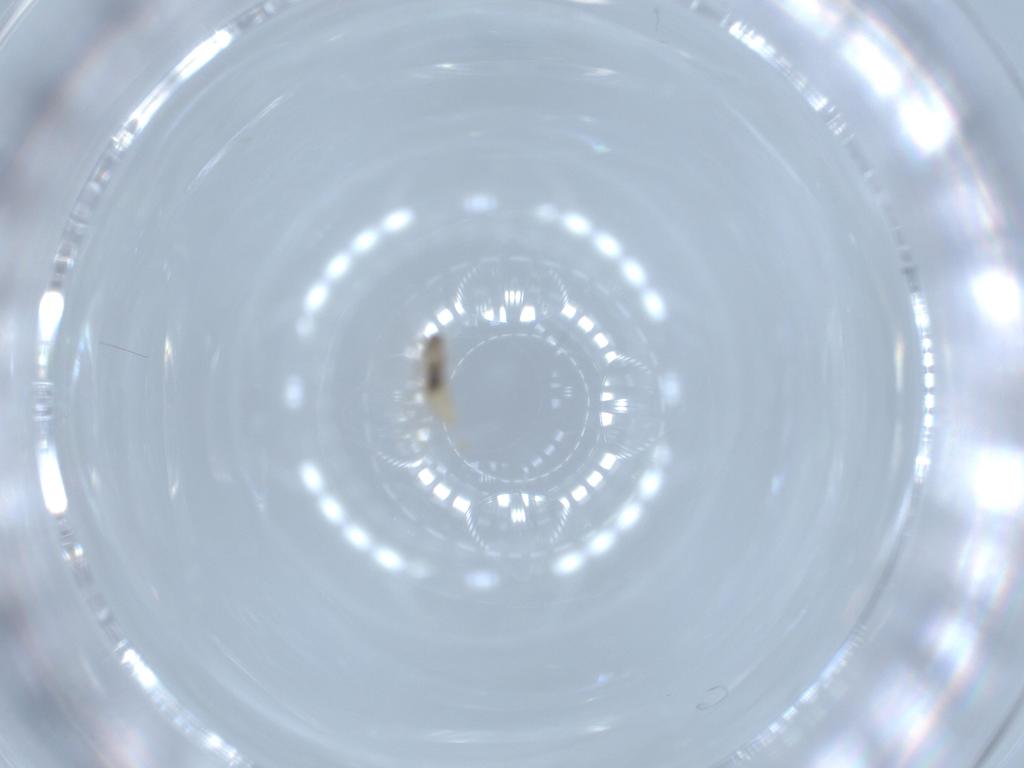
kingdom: Animalia
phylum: Arthropoda
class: Insecta
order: Diptera
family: Cecidomyiidae
